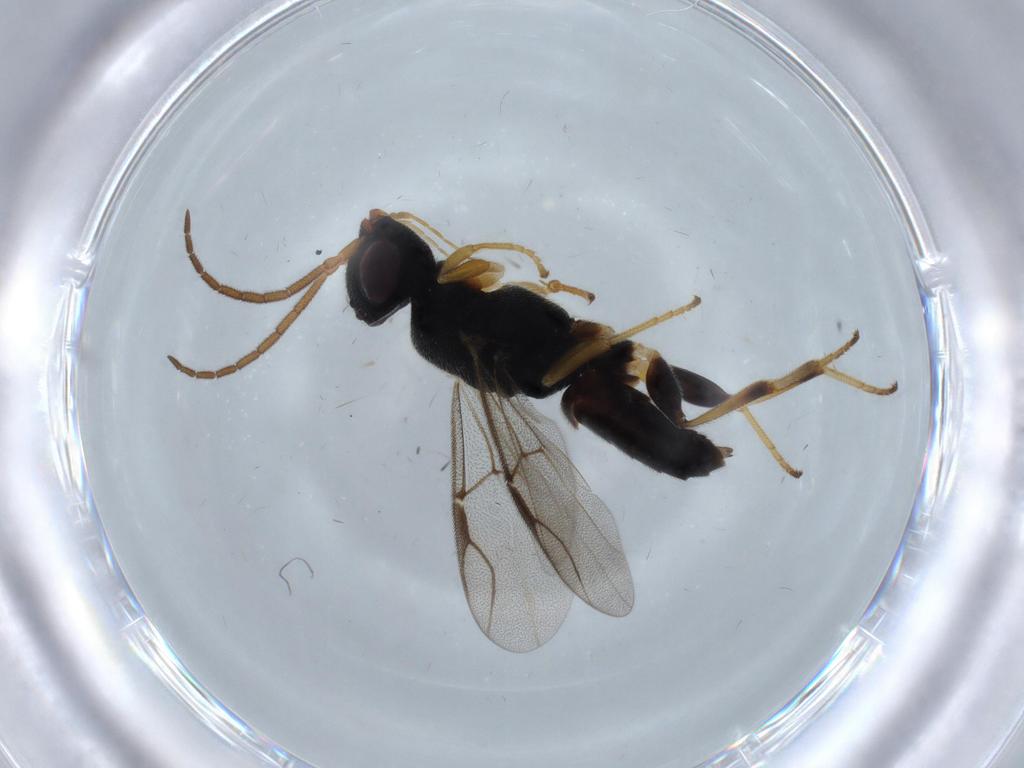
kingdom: Animalia
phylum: Arthropoda
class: Insecta
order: Hymenoptera
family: Dryinidae
